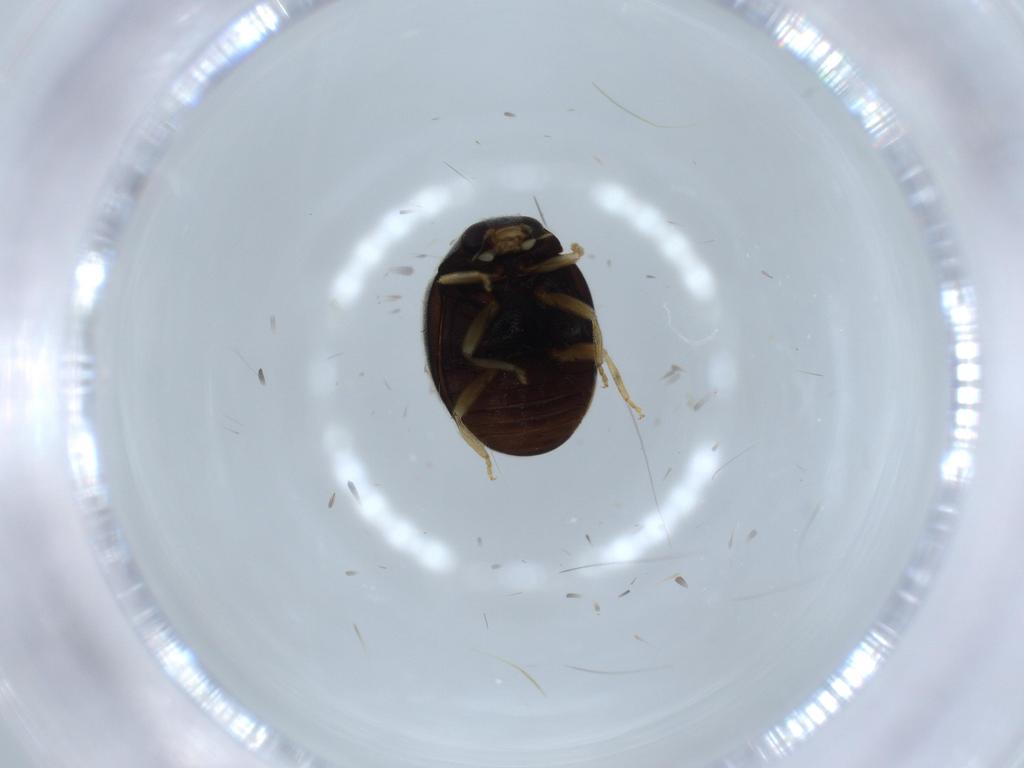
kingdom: Animalia
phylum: Arthropoda
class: Insecta
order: Coleoptera
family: Coccinellidae
